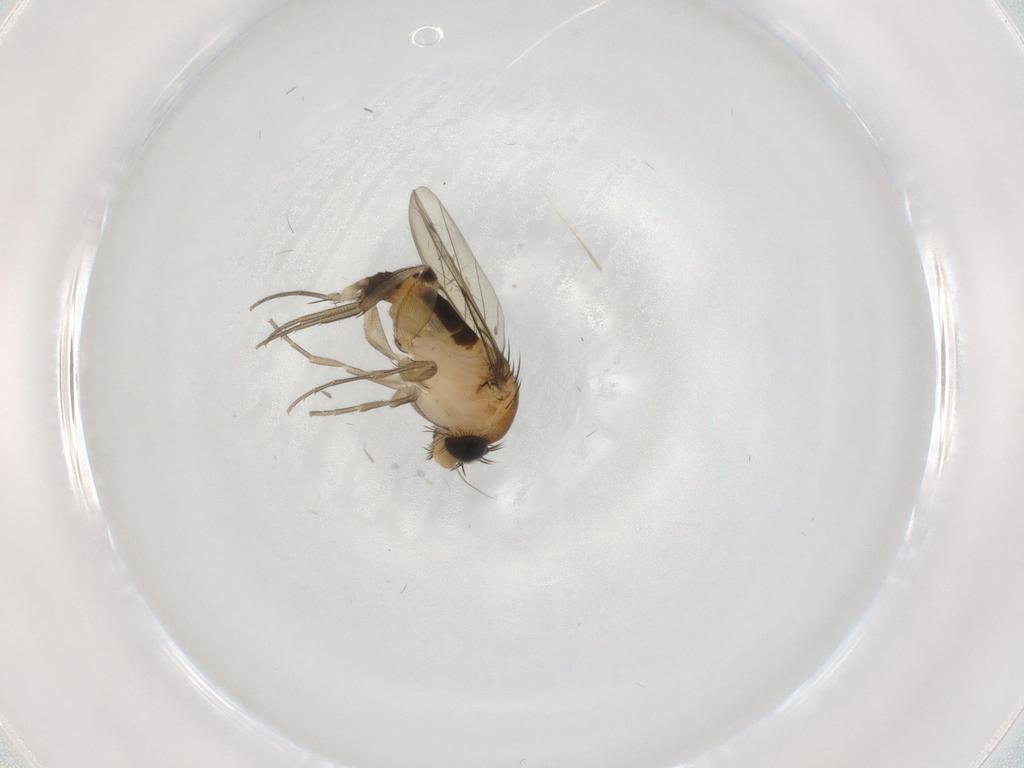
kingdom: Animalia
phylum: Arthropoda
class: Insecta
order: Diptera
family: Phoridae
